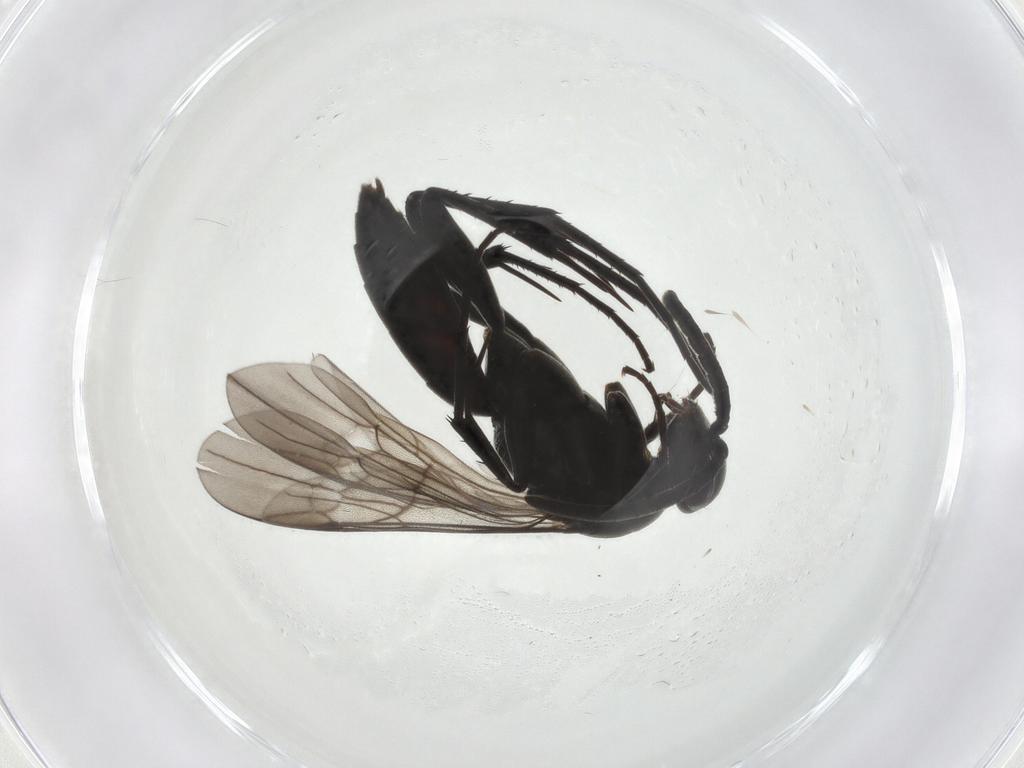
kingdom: Animalia
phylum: Arthropoda
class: Insecta
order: Hymenoptera
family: Pompilidae
